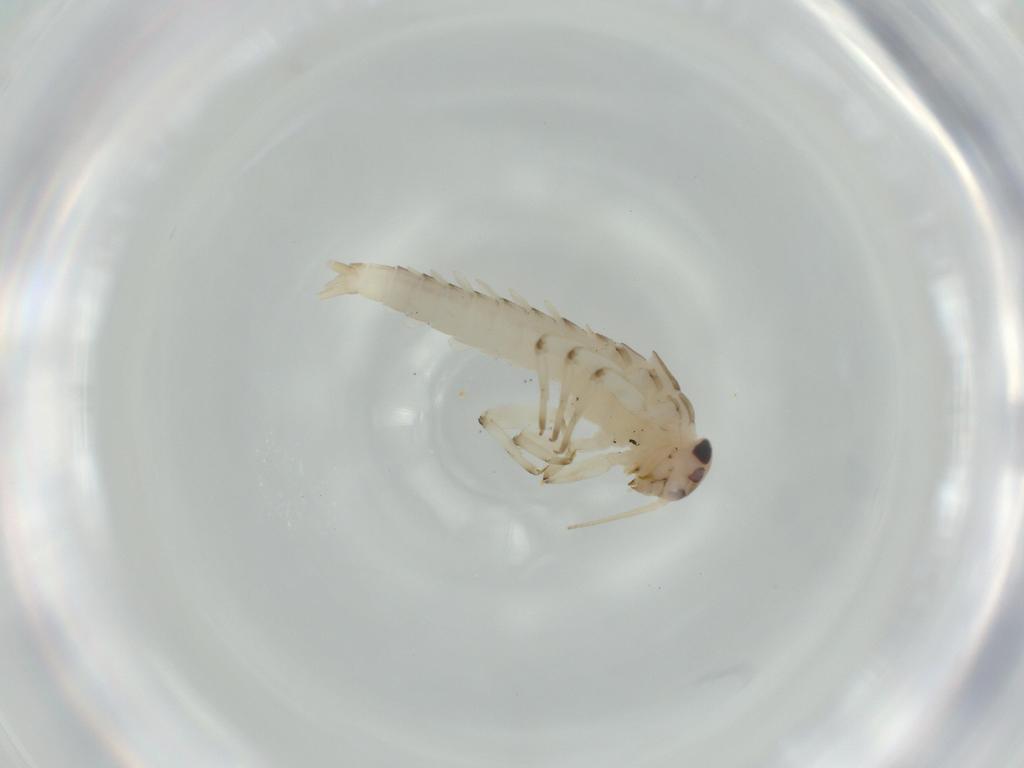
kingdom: Animalia
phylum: Arthropoda
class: Insecta
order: Ephemeroptera
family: Baetidae
